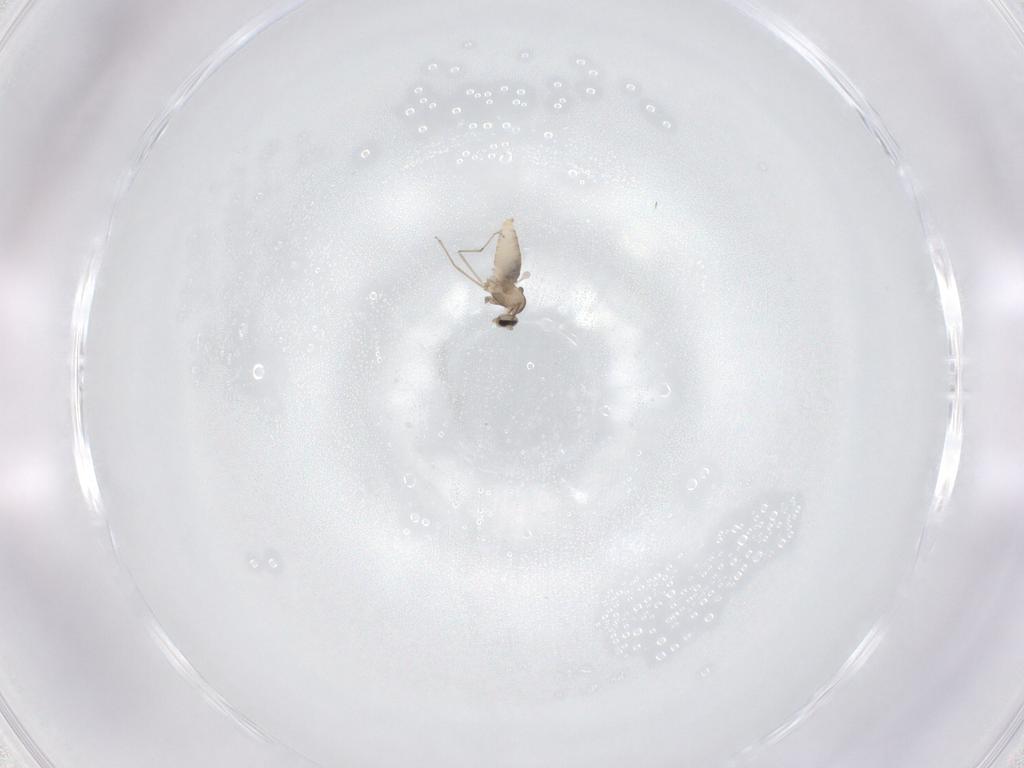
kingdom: Animalia
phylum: Arthropoda
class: Insecta
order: Diptera
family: Cecidomyiidae
